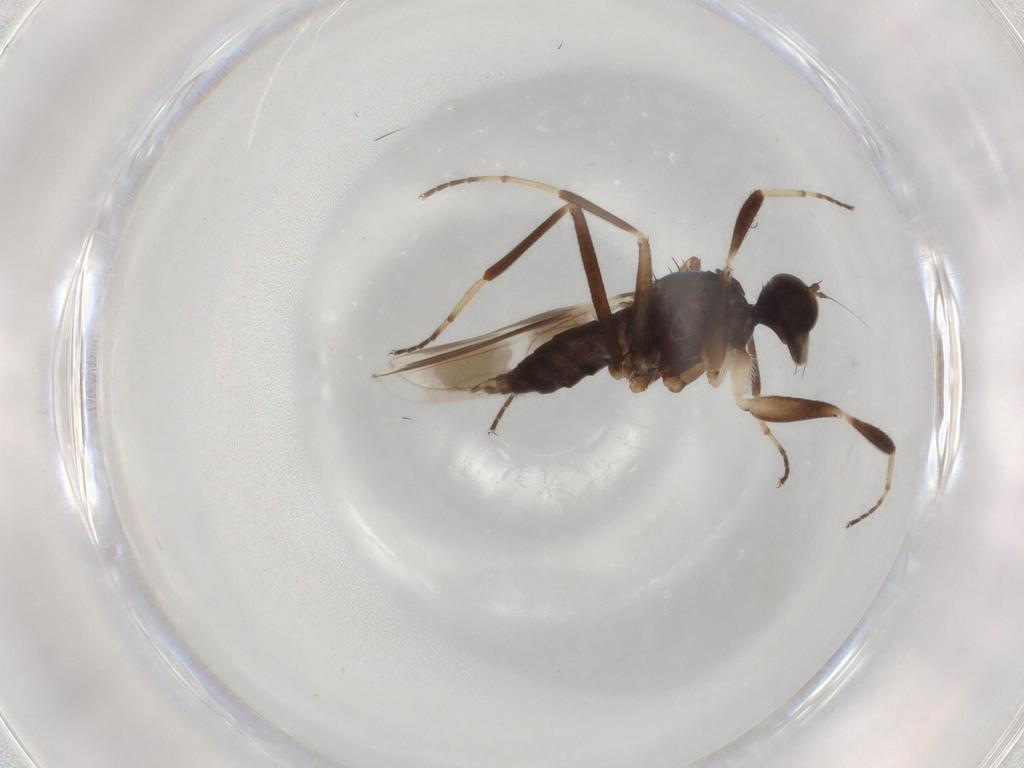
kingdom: Animalia
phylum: Arthropoda
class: Insecta
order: Diptera
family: Hybotidae
